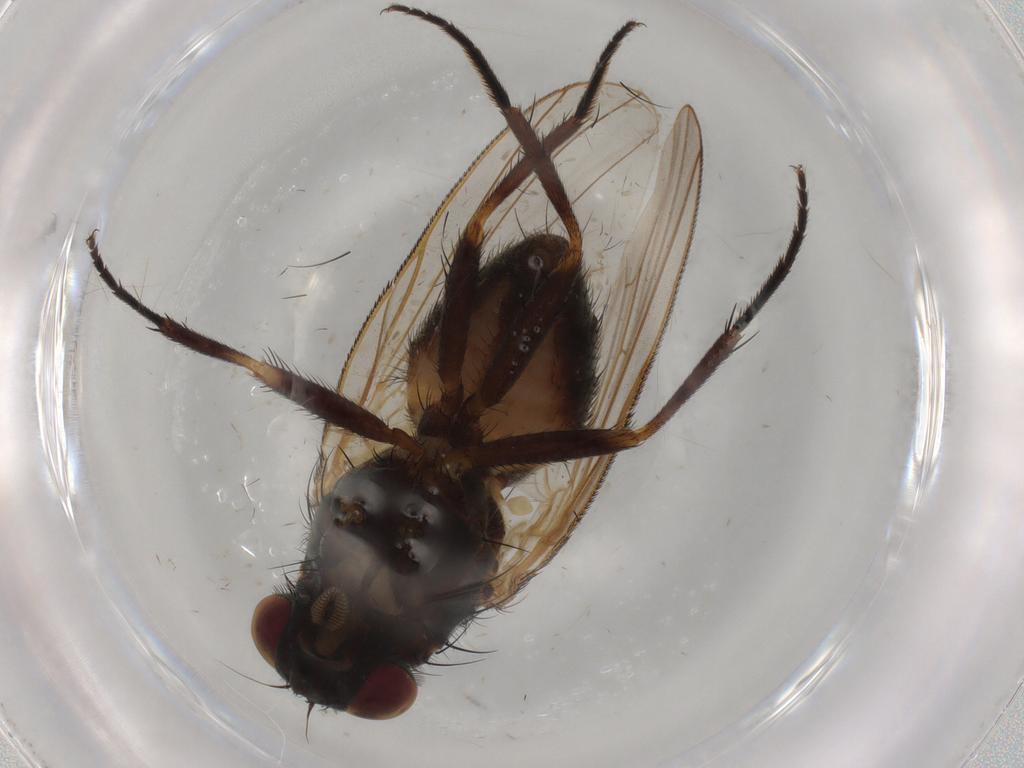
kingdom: Animalia
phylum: Arthropoda
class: Insecta
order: Diptera
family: Fannia
